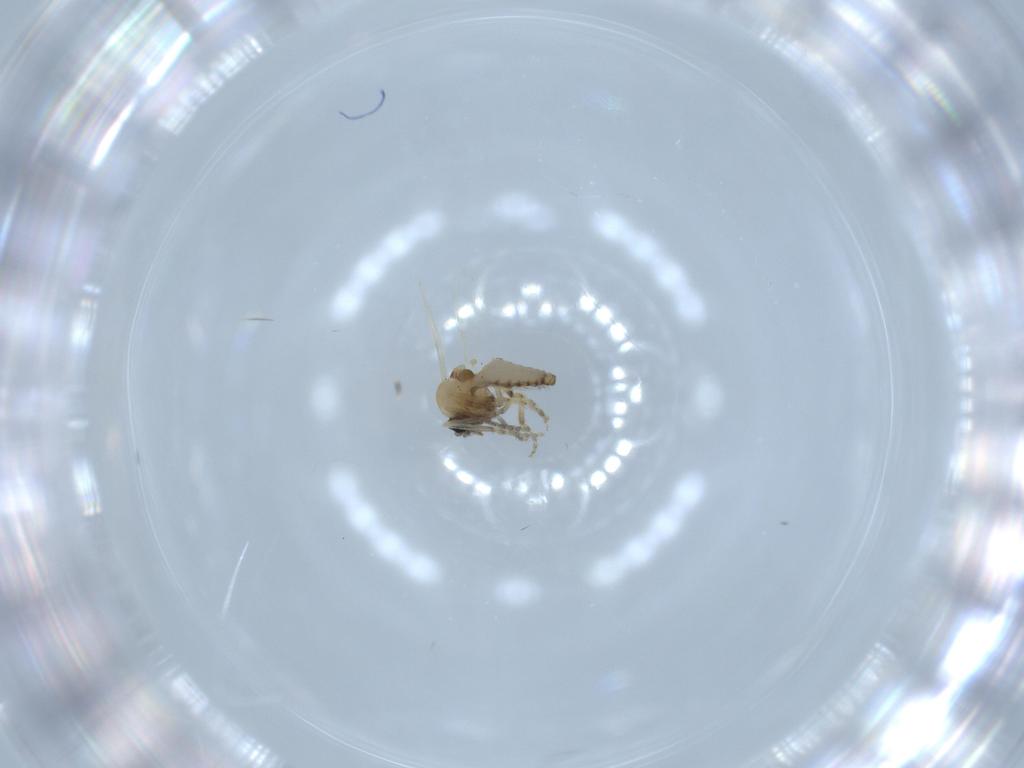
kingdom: Animalia
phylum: Arthropoda
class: Insecta
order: Diptera
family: Ceratopogonidae
